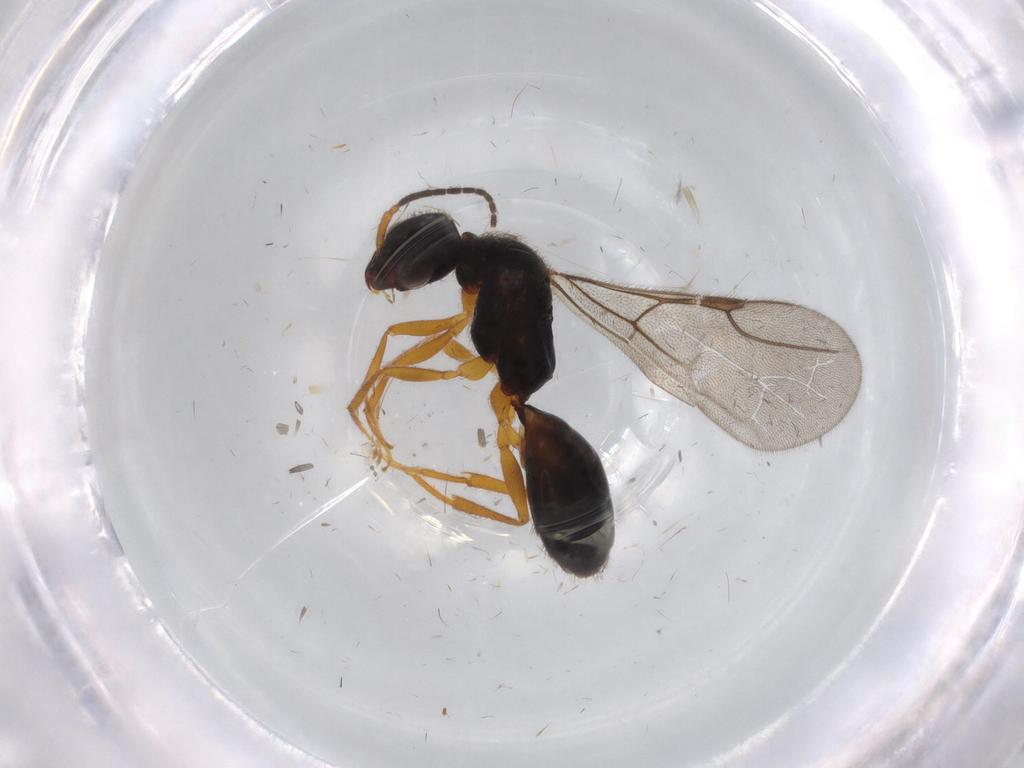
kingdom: Animalia
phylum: Arthropoda
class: Insecta
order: Hymenoptera
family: Bethylidae
